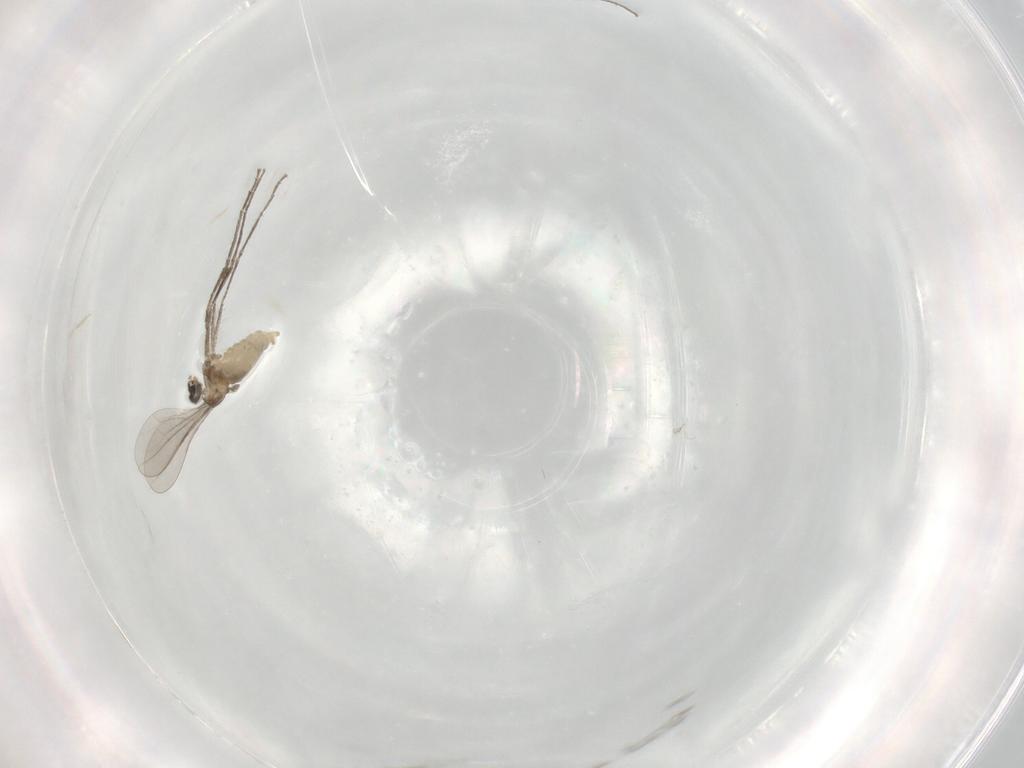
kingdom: Animalia
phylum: Arthropoda
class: Insecta
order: Diptera
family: Cecidomyiidae
